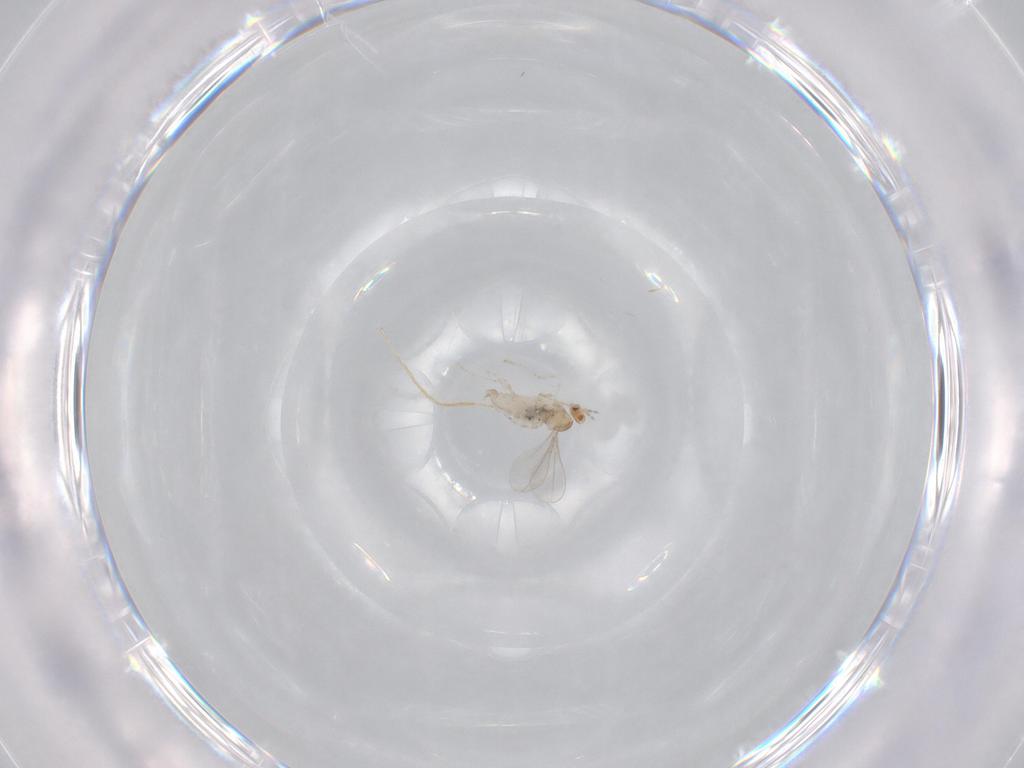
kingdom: Animalia
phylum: Arthropoda
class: Insecta
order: Diptera
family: Cecidomyiidae
